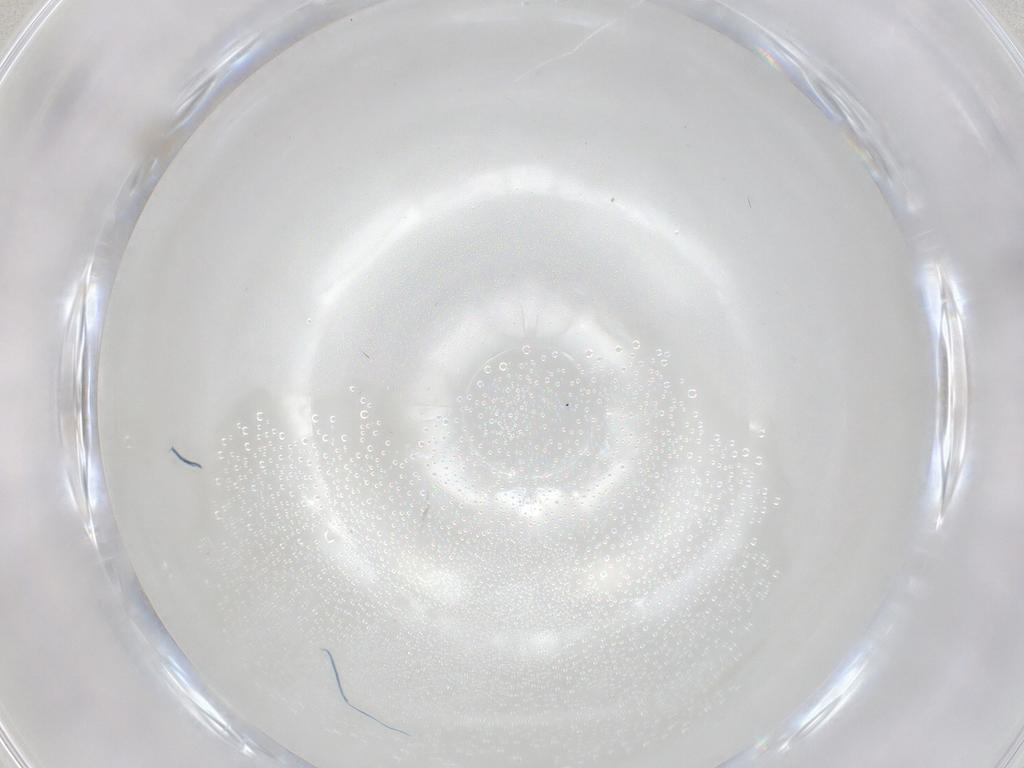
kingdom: Animalia
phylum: Arthropoda
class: Insecta
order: Diptera
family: Cecidomyiidae
